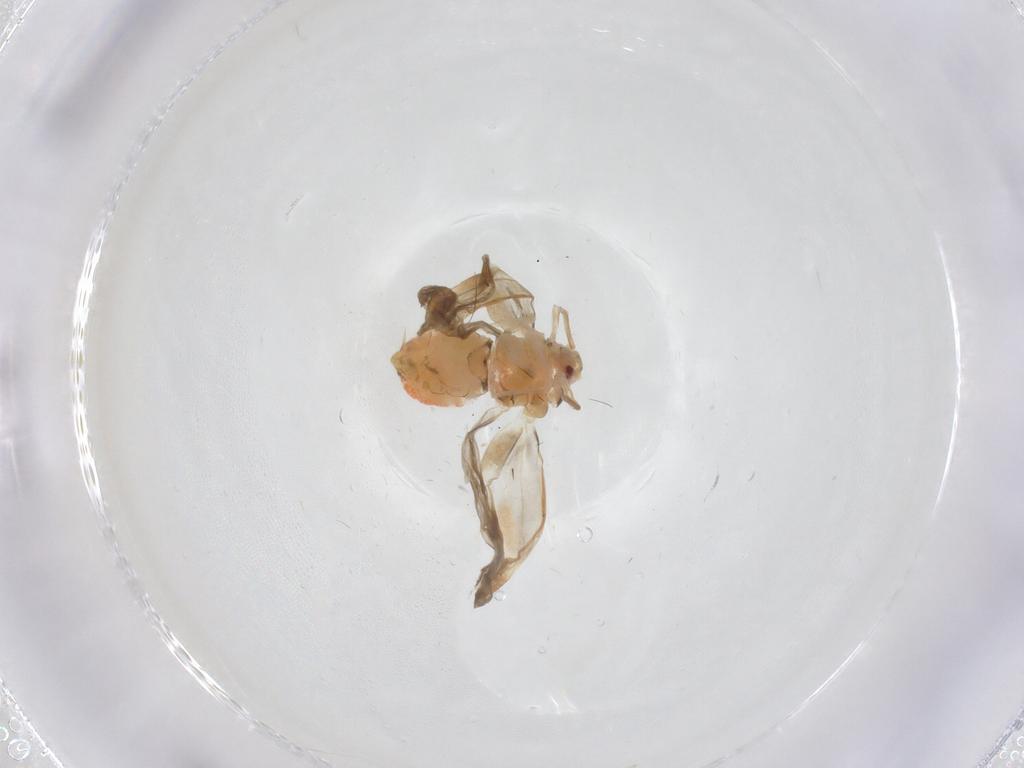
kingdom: Animalia
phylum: Arthropoda
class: Insecta
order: Hemiptera
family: Aleyrodidae
